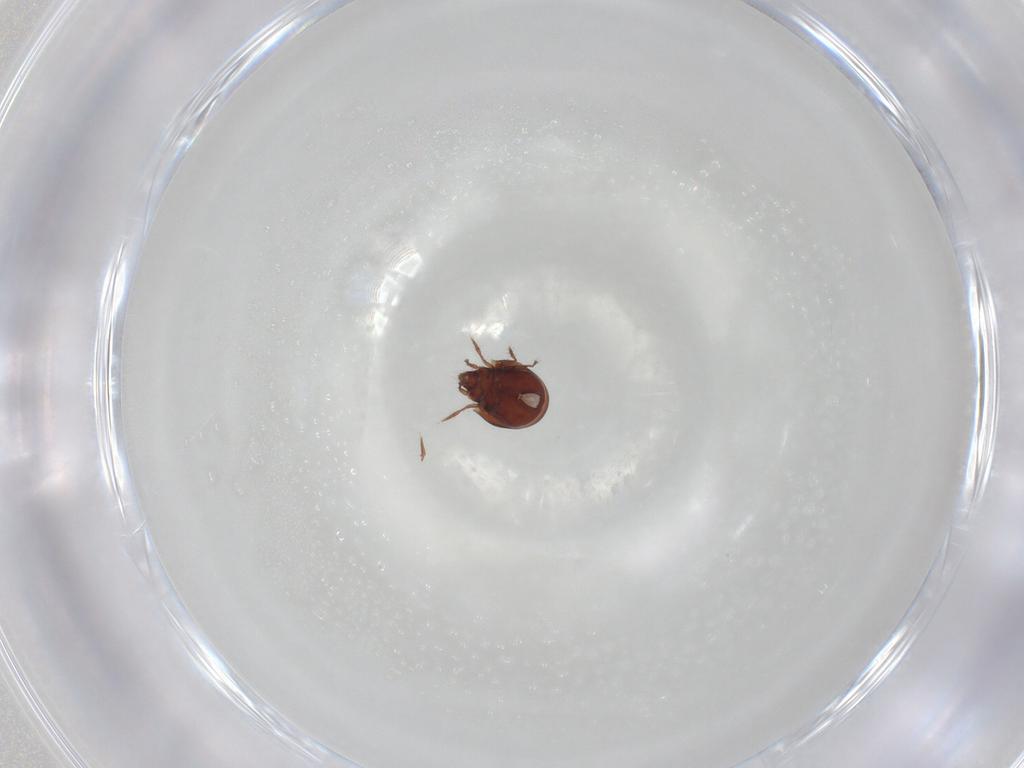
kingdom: Animalia
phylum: Arthropoda
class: Arachnida
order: Sarcoptiformes
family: Ceratozetidae
